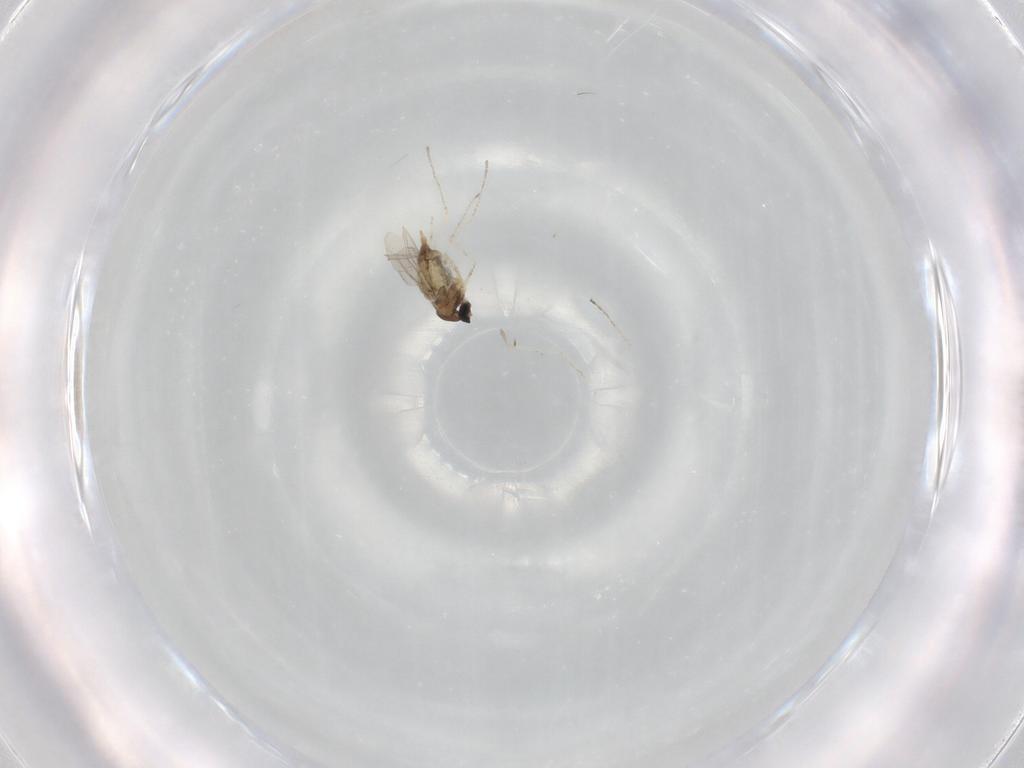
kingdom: Animalia
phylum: Arthropoda
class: Insecta
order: Diptera
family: Cecidomyiidae
